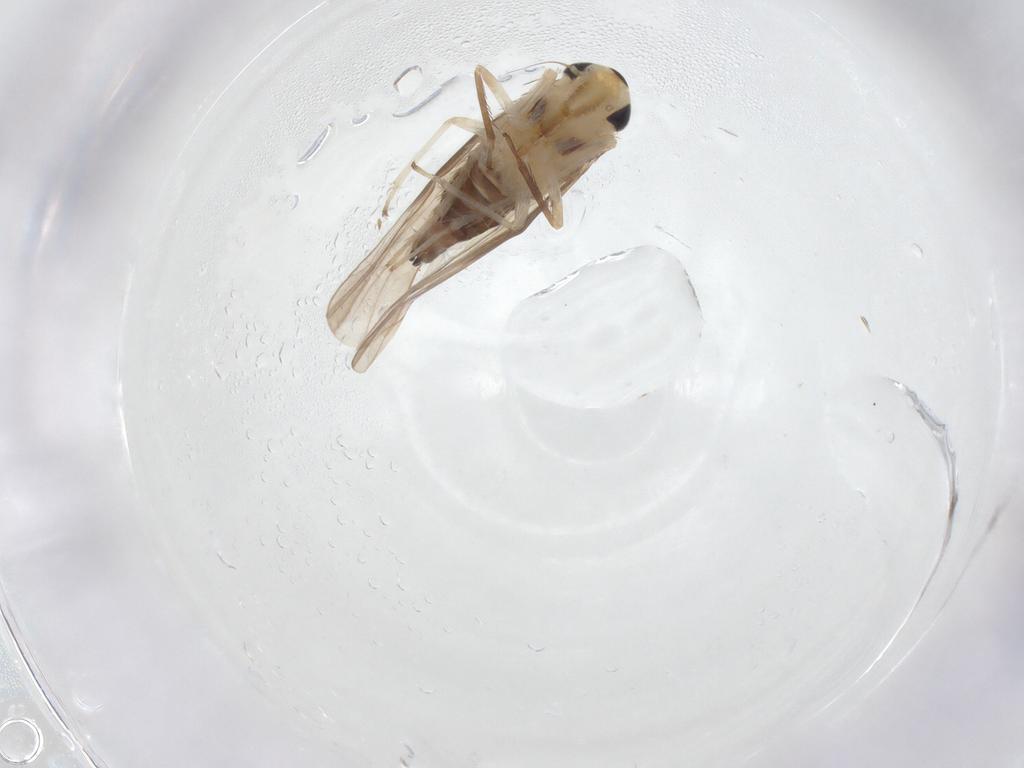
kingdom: Animalia
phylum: Arthropoda
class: Insecta
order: Hemiptera
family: Cicadellidae
